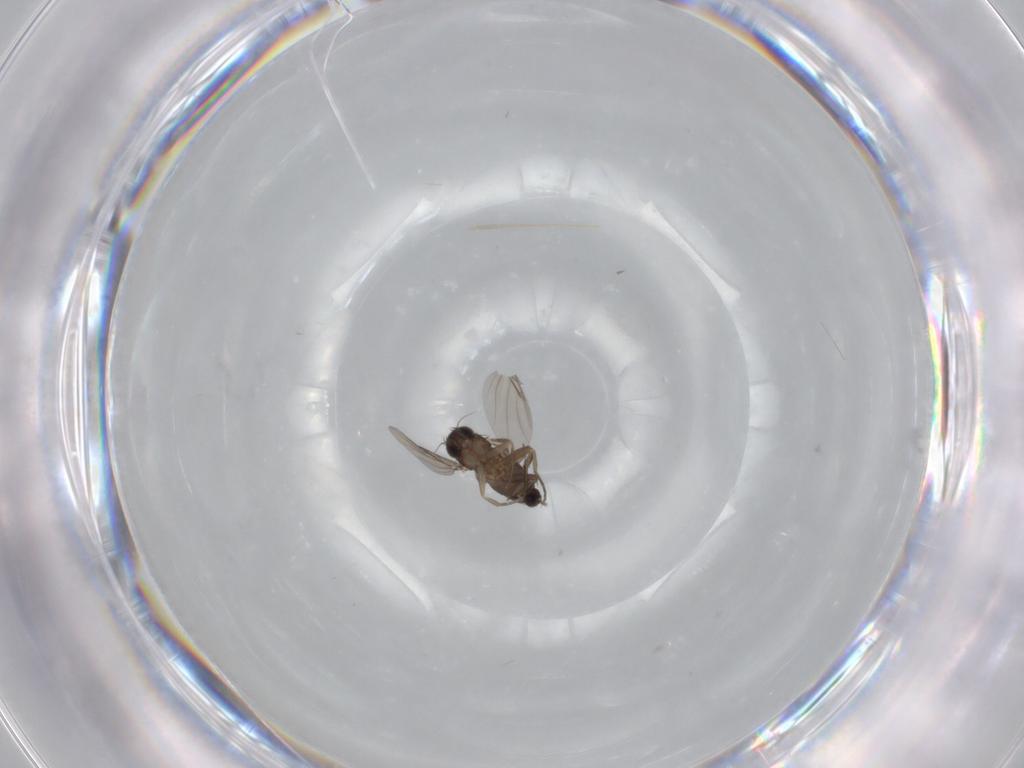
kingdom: Animalia
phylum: Arthropoda
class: Insecta
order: Diptera
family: Phoridae
